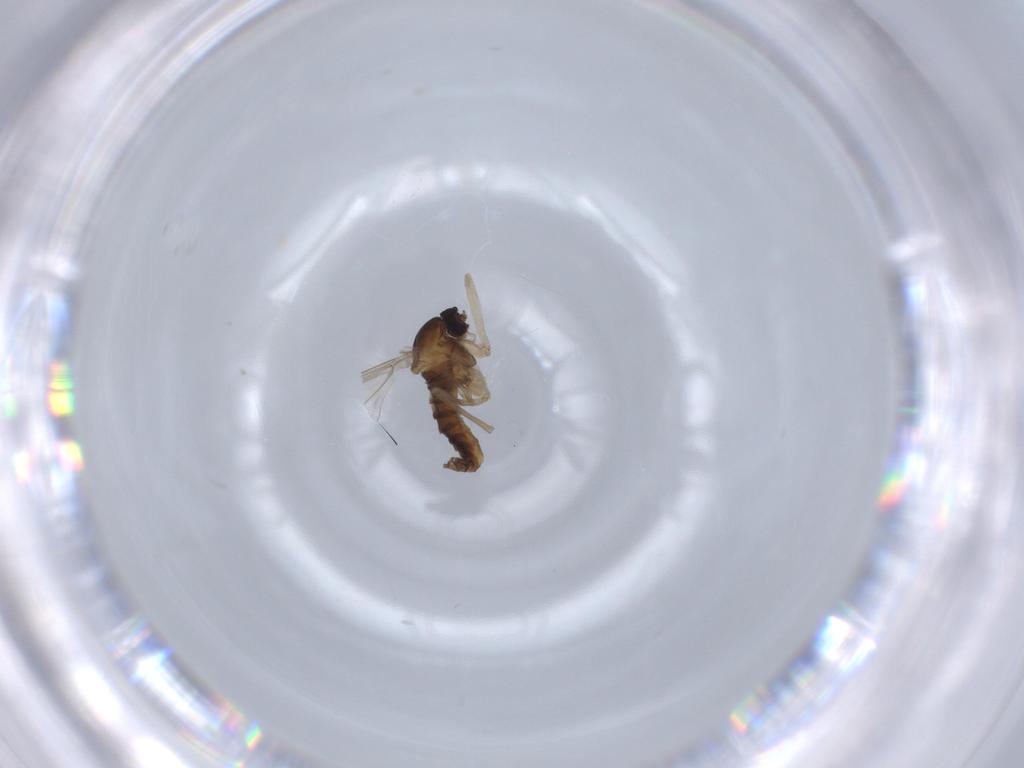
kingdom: Animalia
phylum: Arthropoda
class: Insecta
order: Diptera
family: Cecidomyiidae
